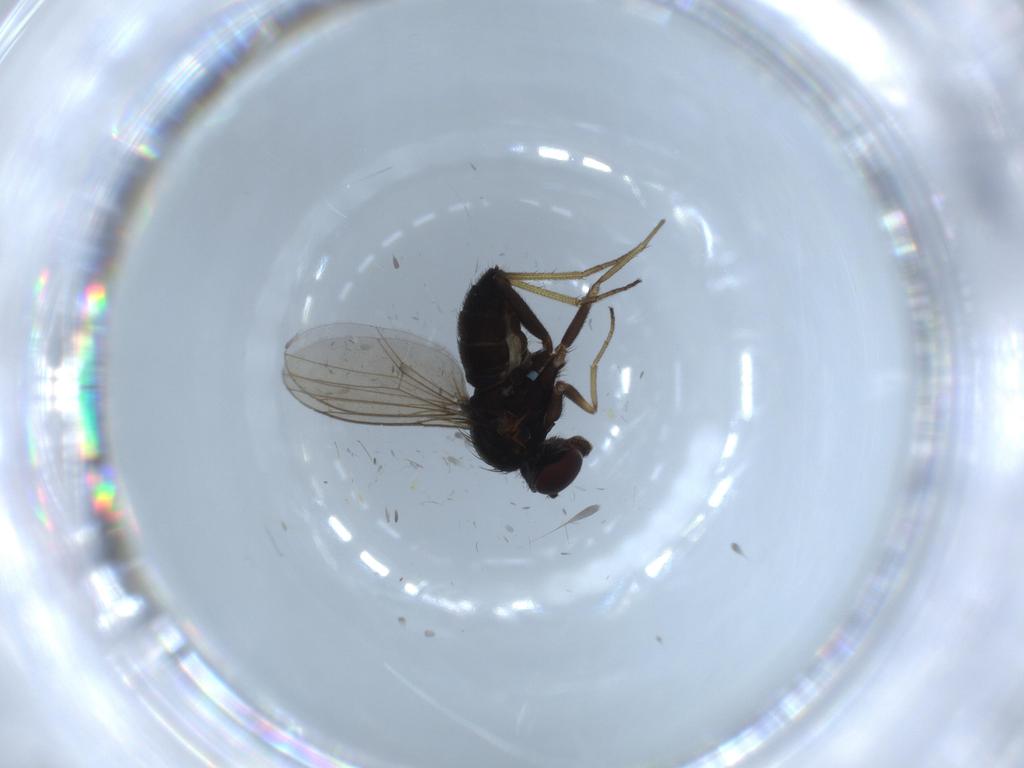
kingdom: Animalia
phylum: Arthropoda
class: Insecta
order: Diptera
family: Dolichopodidae
